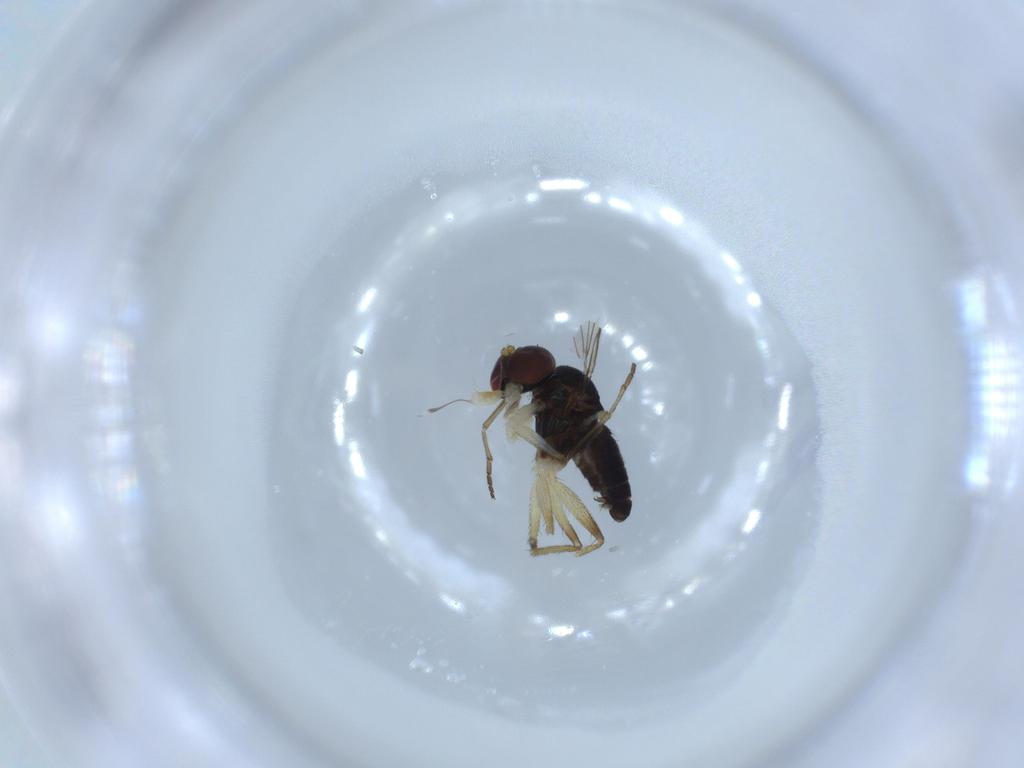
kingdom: Animalia
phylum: Arthropoda
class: Insecta
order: Diptera
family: Dolichopodidae
